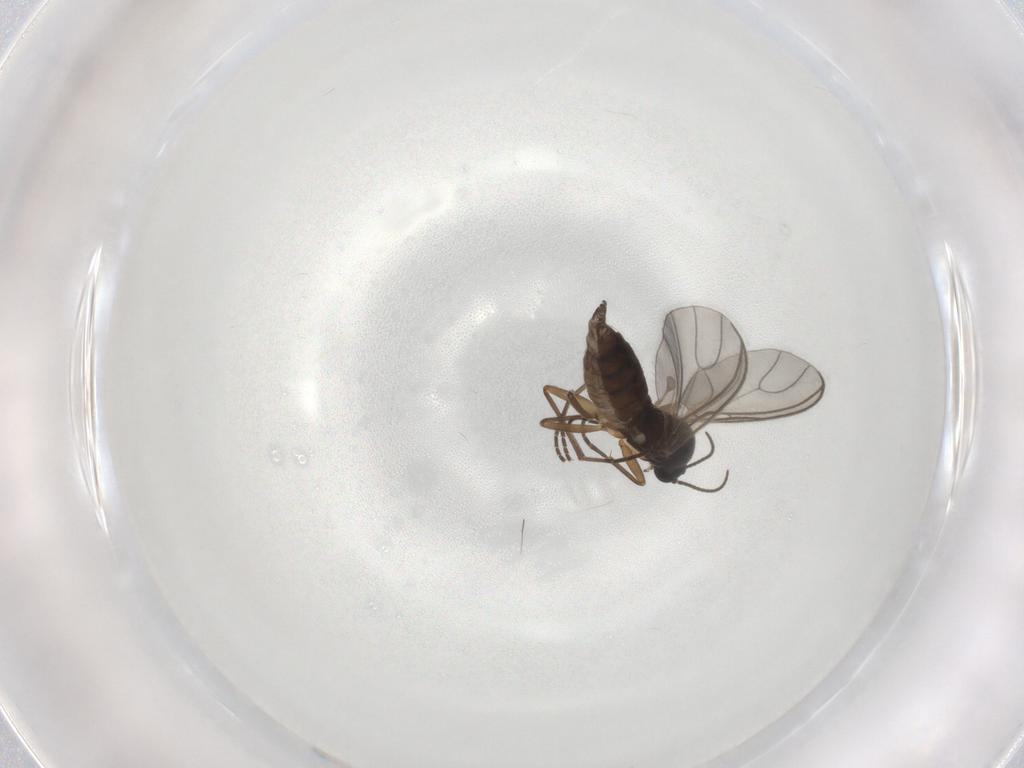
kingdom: Animalia
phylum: Arthropoda
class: Insecta
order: Diptera
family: Sciaridae
